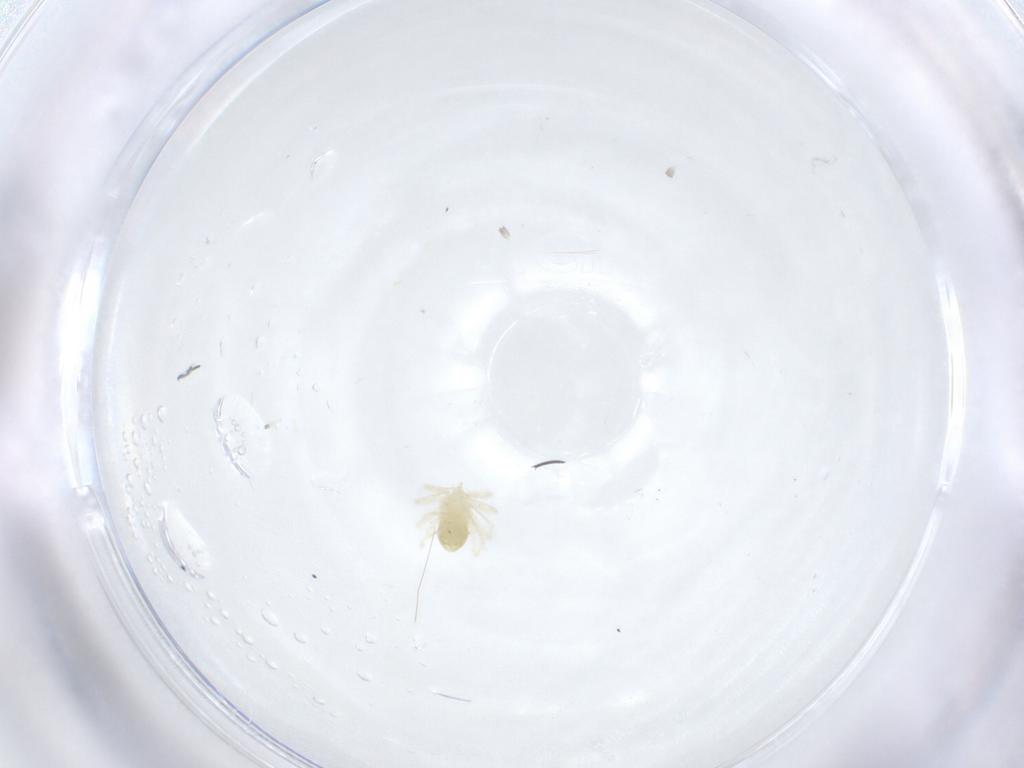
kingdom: Animalia
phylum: Arthropoda
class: Arachnida
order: Trombidiformes
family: Anystidae
